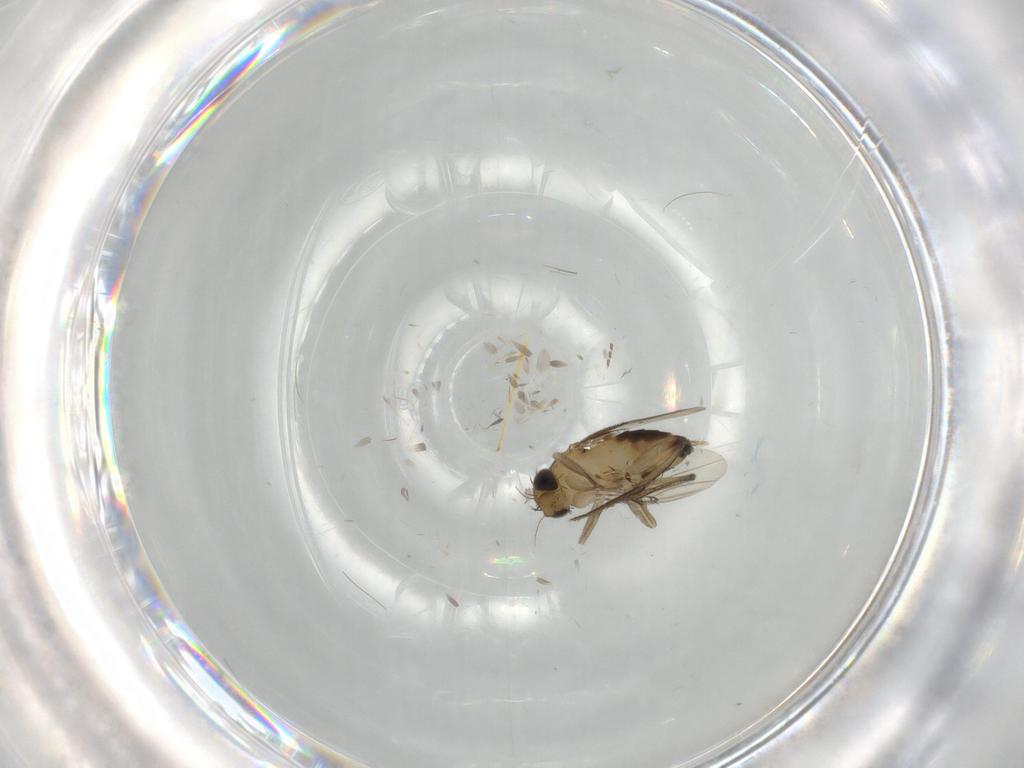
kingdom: Animalia
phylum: Arthropoda
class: Insecta
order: Diptera
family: Phoridae
